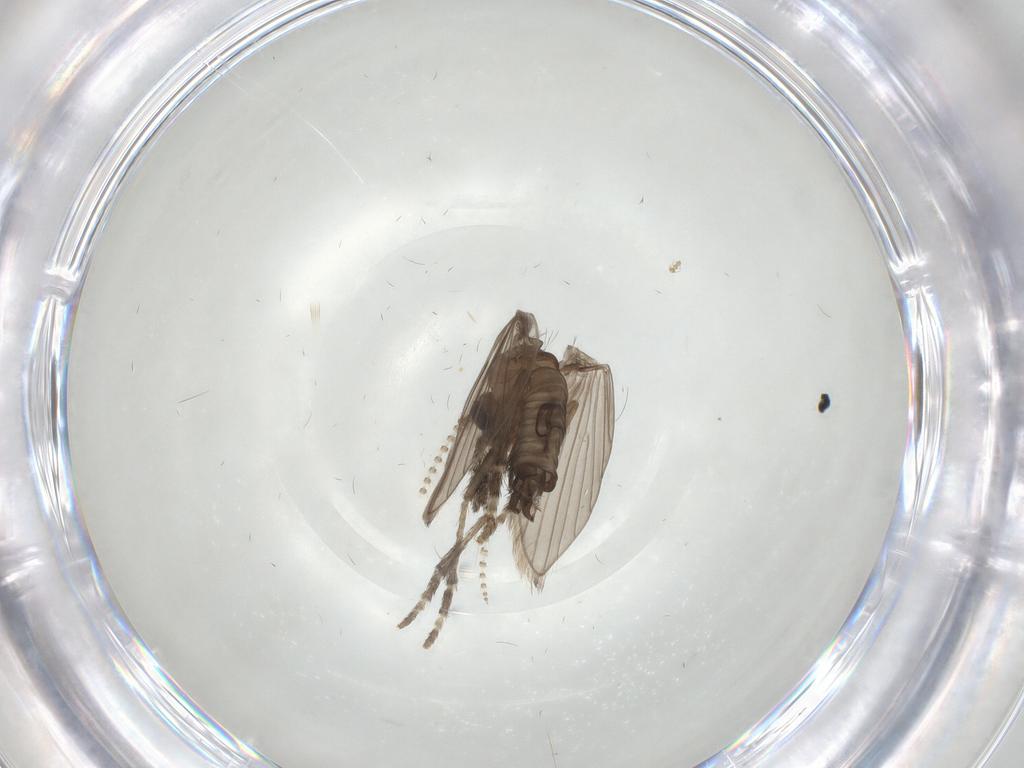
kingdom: Animalia
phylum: Arthropoda
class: Insecta
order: Diptera
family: Psychodidae
